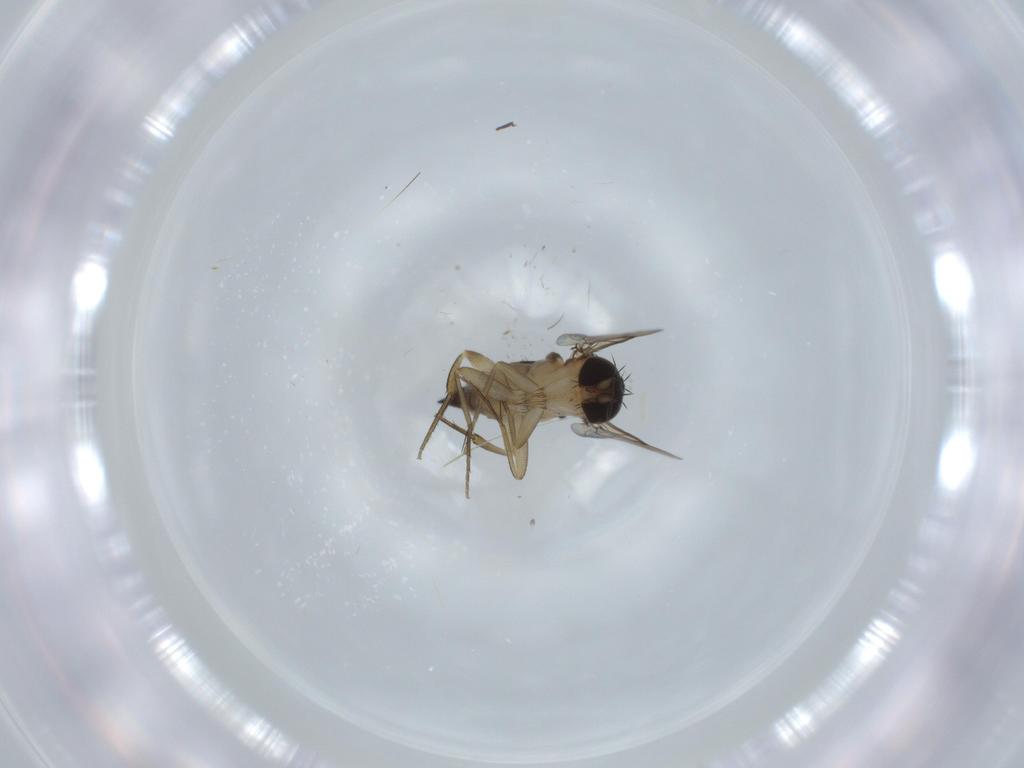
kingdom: Animalia
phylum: Arthropoda
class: Insecta
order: Diptera
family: Phoridae
